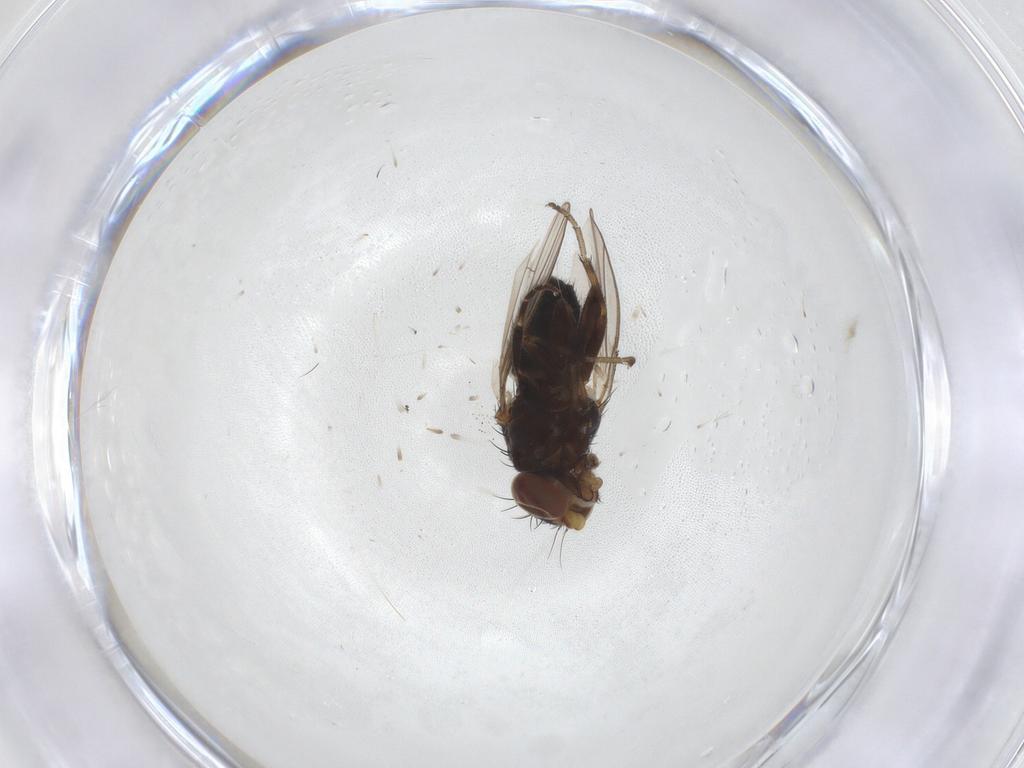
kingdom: Animalia
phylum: Arthropoda
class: Insecta
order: Diptera
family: Heleomyzidae
